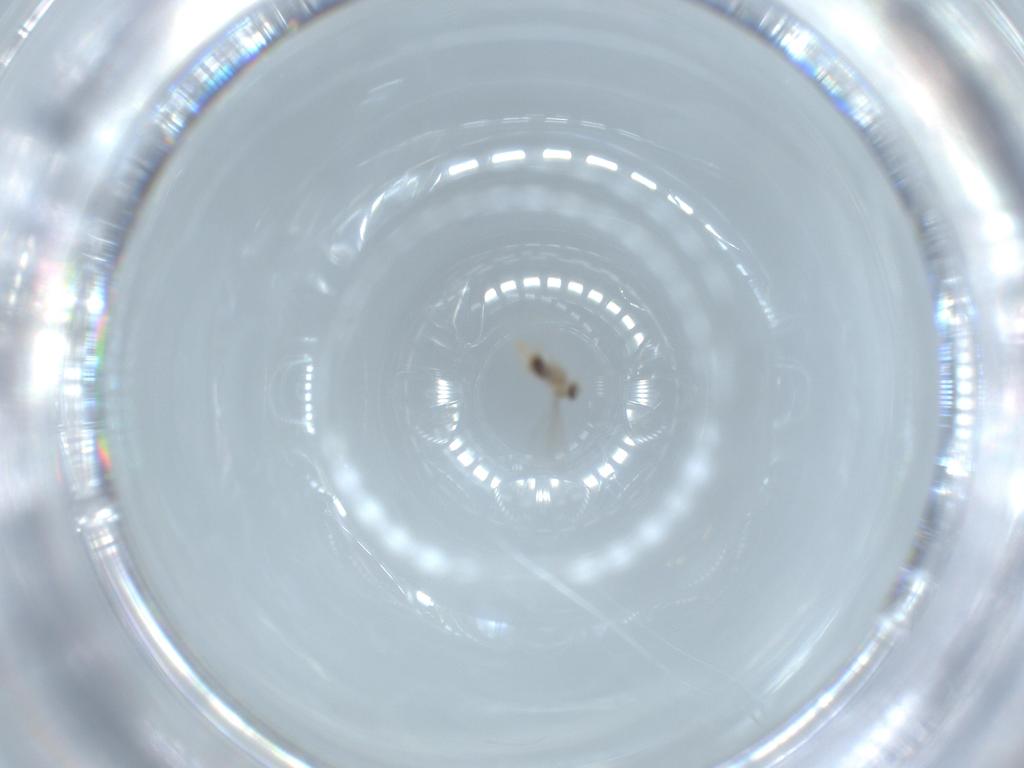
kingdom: Animalia
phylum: Arthropoda
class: Insecta
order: Diptera
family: Cecidomyiidae
